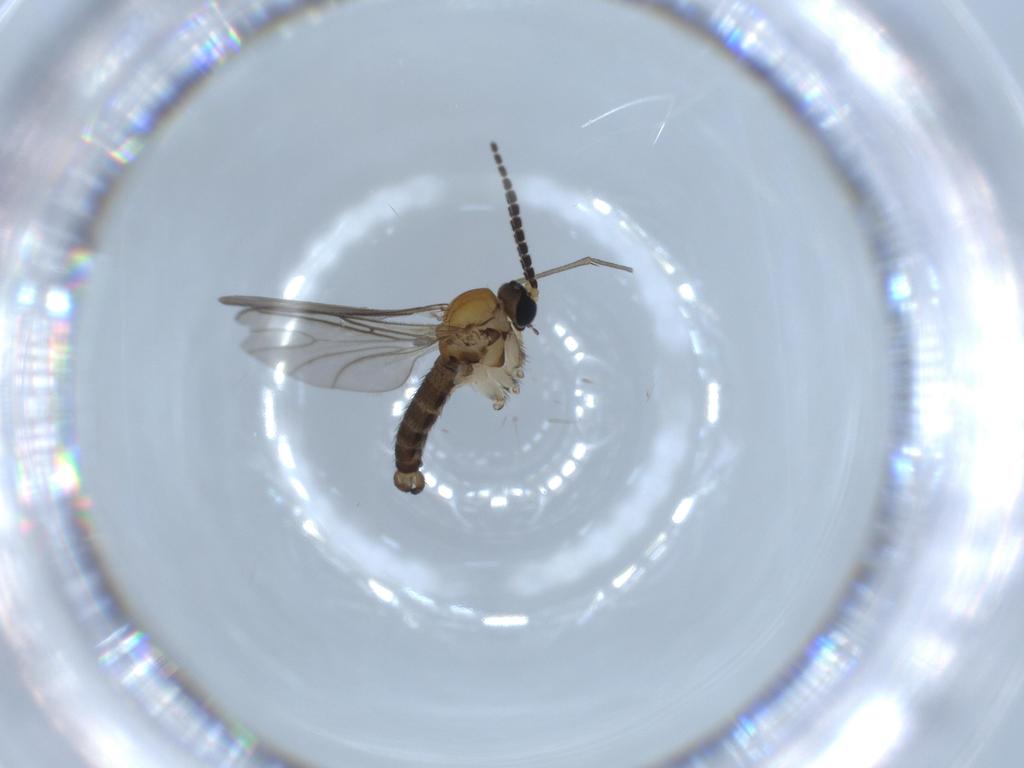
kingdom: Animalia
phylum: Arthropoda
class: Insecta
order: Diptera
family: Sciaridae
